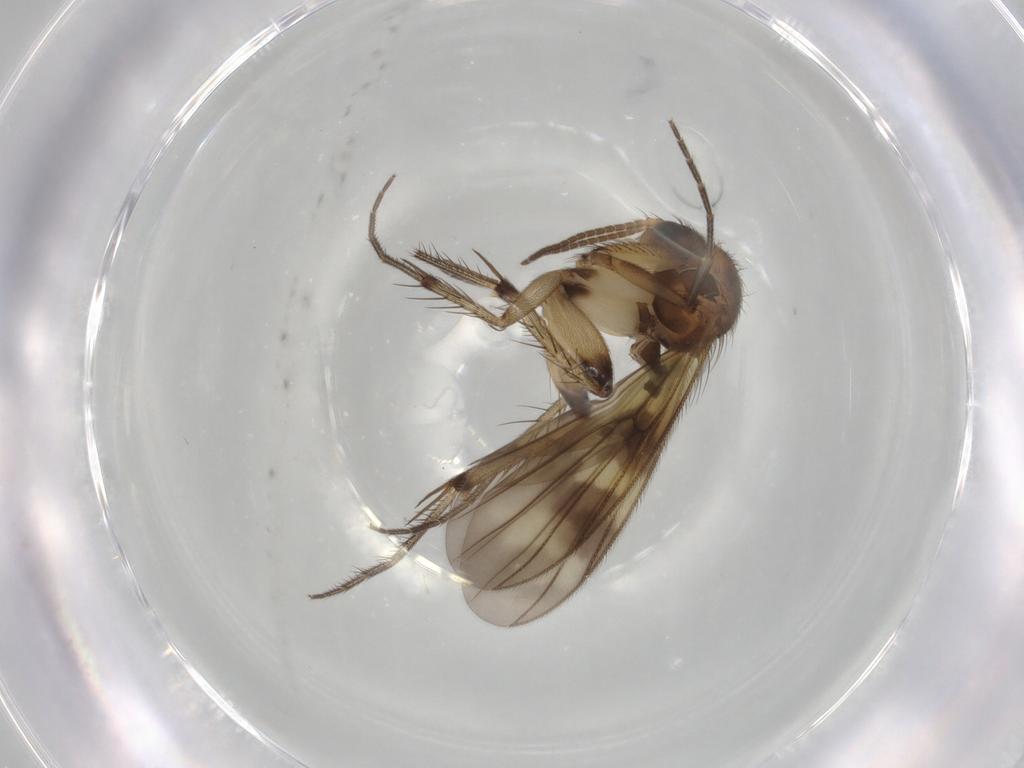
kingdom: Animalia
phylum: Arthropoda
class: Insecta
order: Diptera
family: Mycetophilidae
